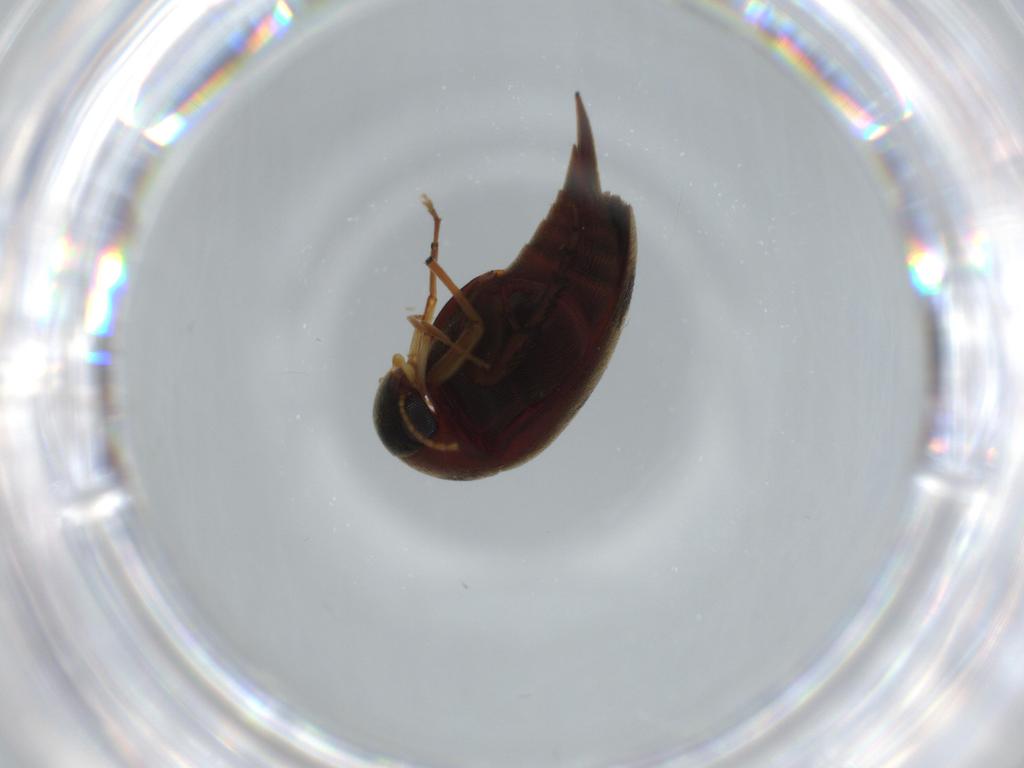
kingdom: Animalia
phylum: Arthropoda
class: Insecta
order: Coleoptera
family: Mordellidae
